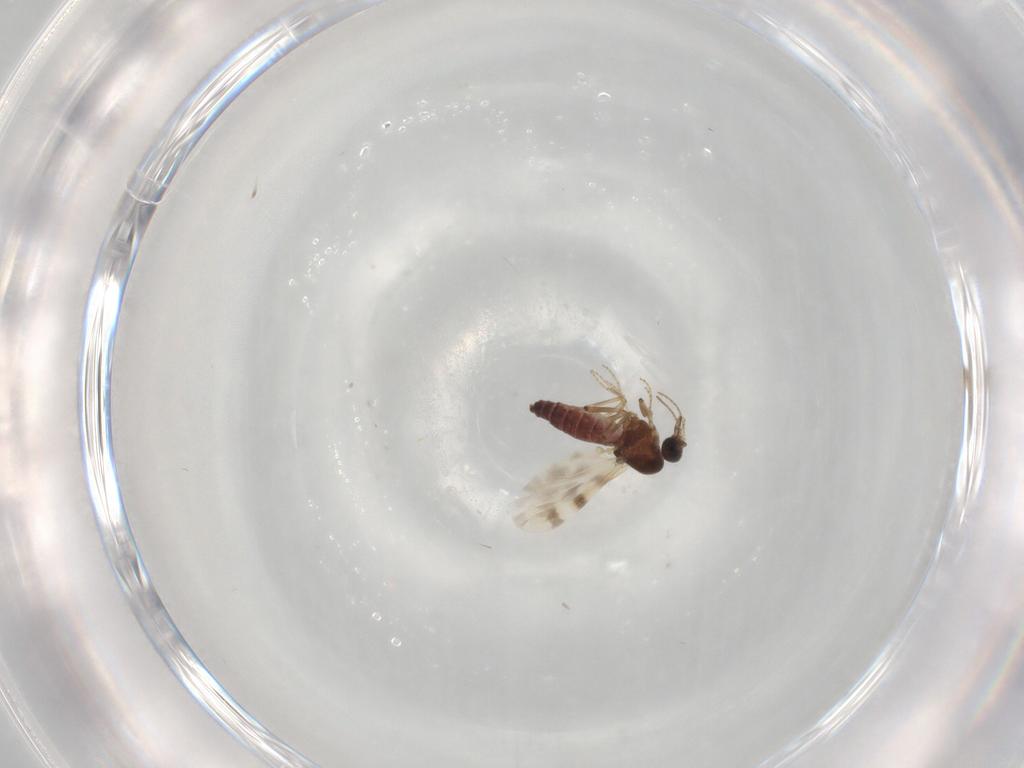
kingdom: Animalia
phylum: Arthropoda
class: Insecta
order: Diptera
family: Ceratopogonidae
